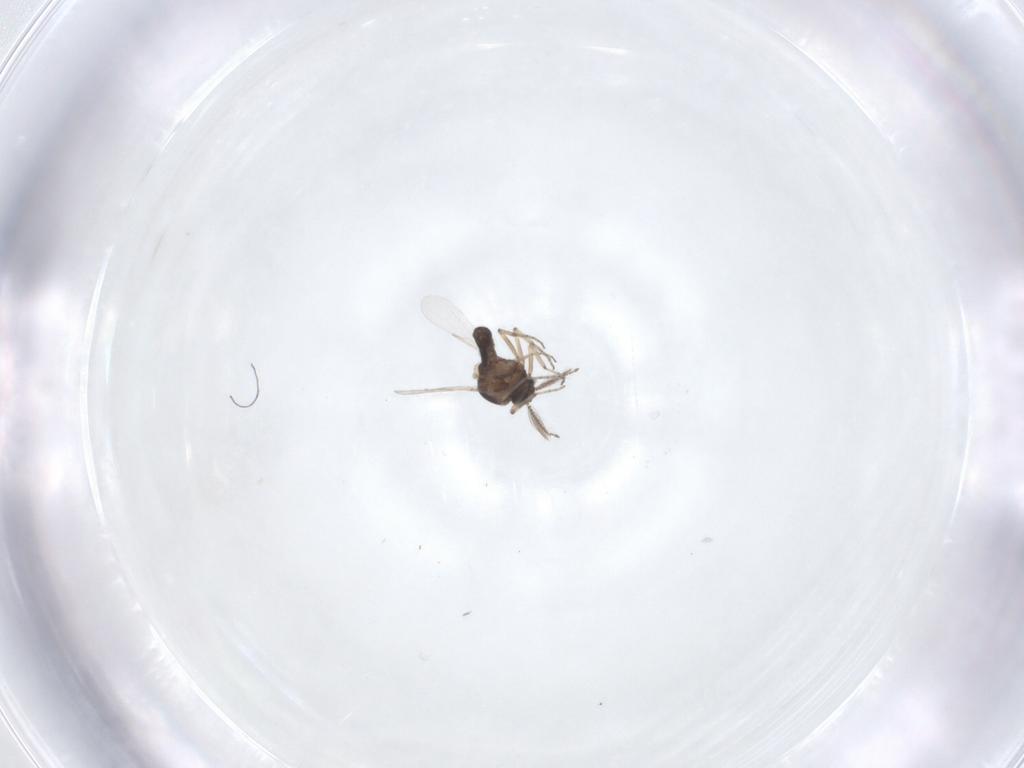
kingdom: Animalia
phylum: Arthropoda
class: Insecta
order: Diptera
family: Ceratopogonidae
